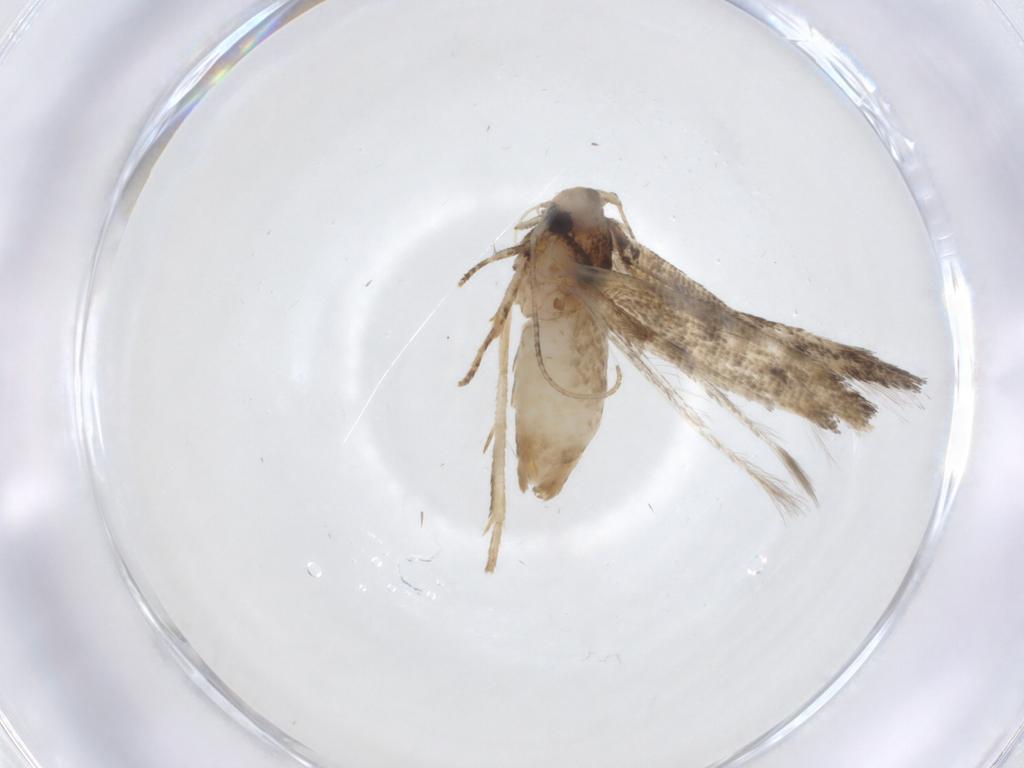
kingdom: Animalia
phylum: Arthropoda
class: Insecta
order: Lepidoptera
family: Gelechiidae
